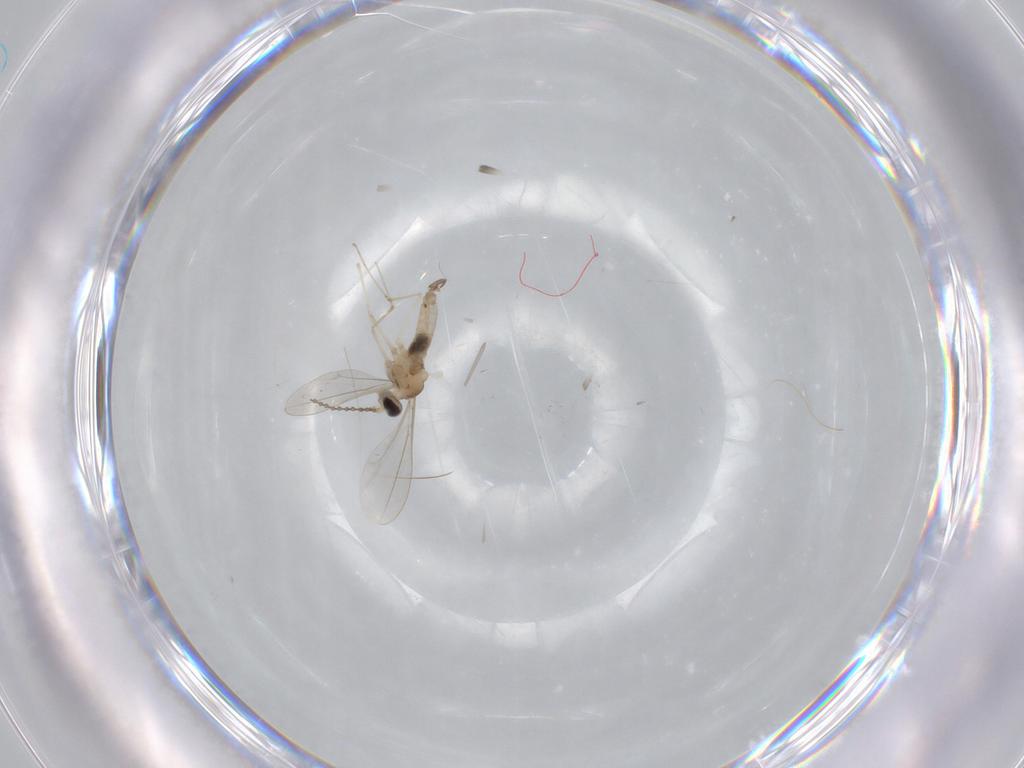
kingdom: Animalia
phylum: Arthropoda
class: Insecta
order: Diptera
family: Cecidomyiidae
